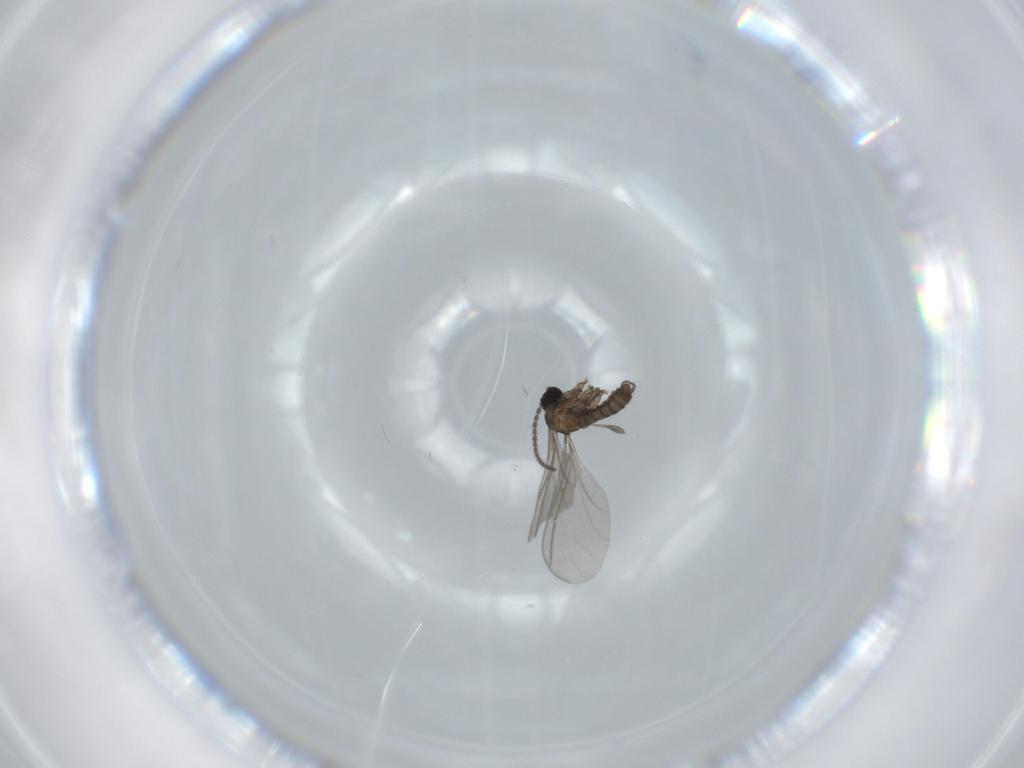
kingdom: Animalia
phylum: Arthropoda
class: Insecta
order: Diptera
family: Sciaridae
